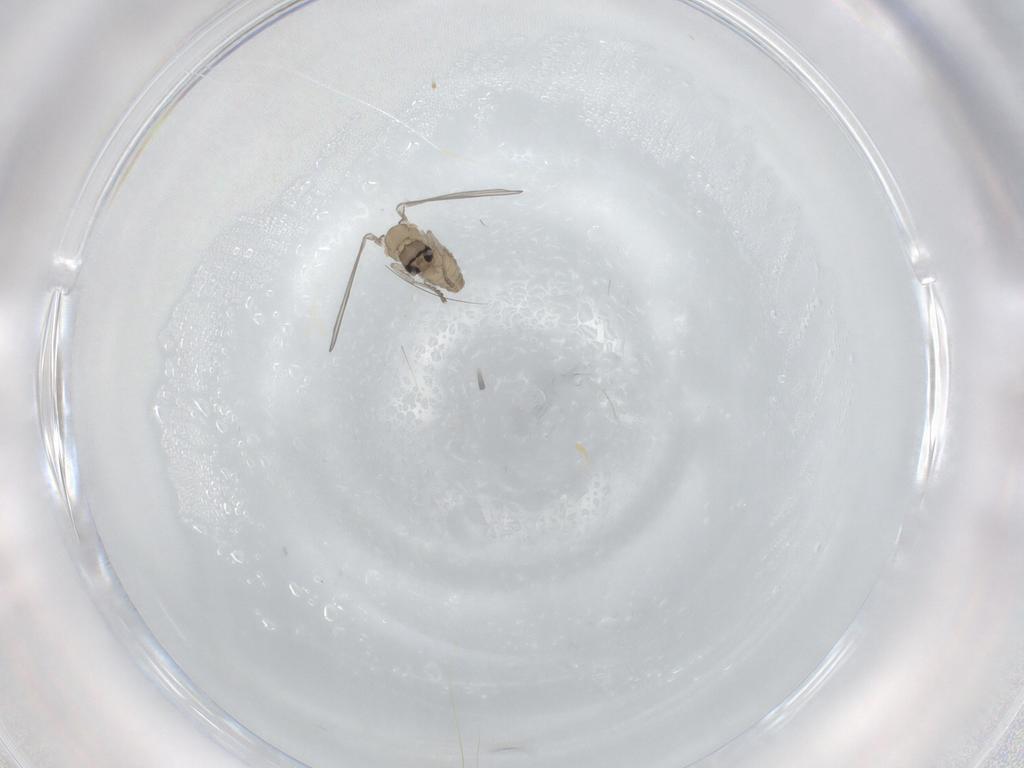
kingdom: Animalia
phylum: Arthropoda
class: Insecta
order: Diptera
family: Psychodidae
